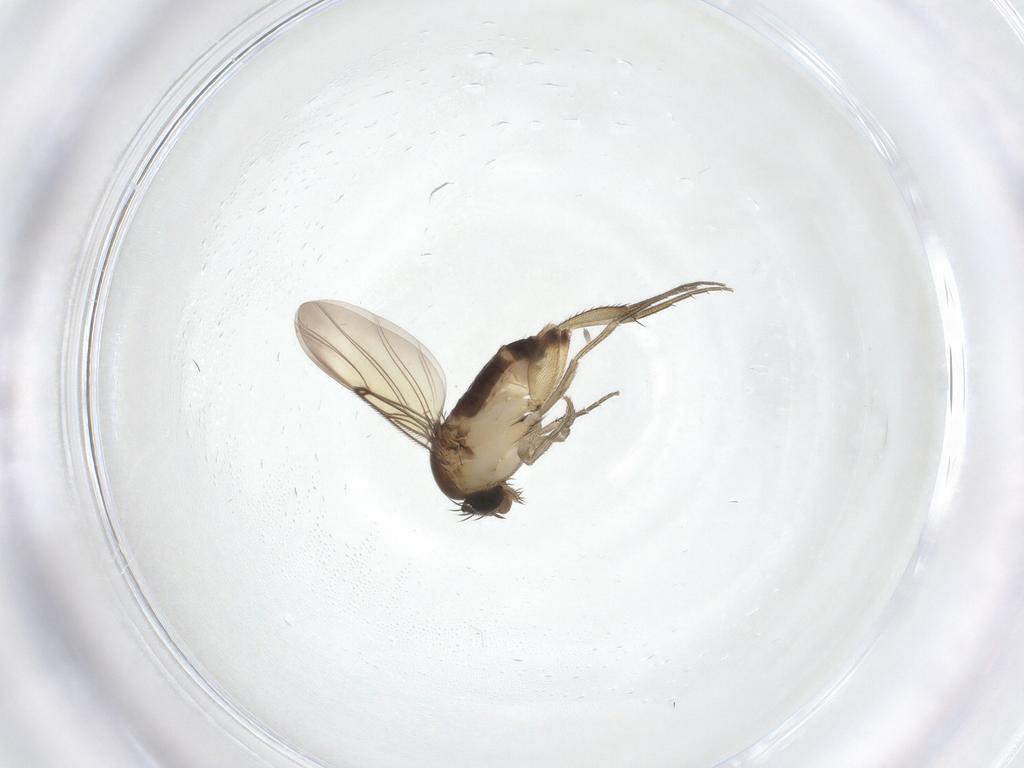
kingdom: Animalia
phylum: Arthropoda
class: Insecta
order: Diptera
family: Phoridae
